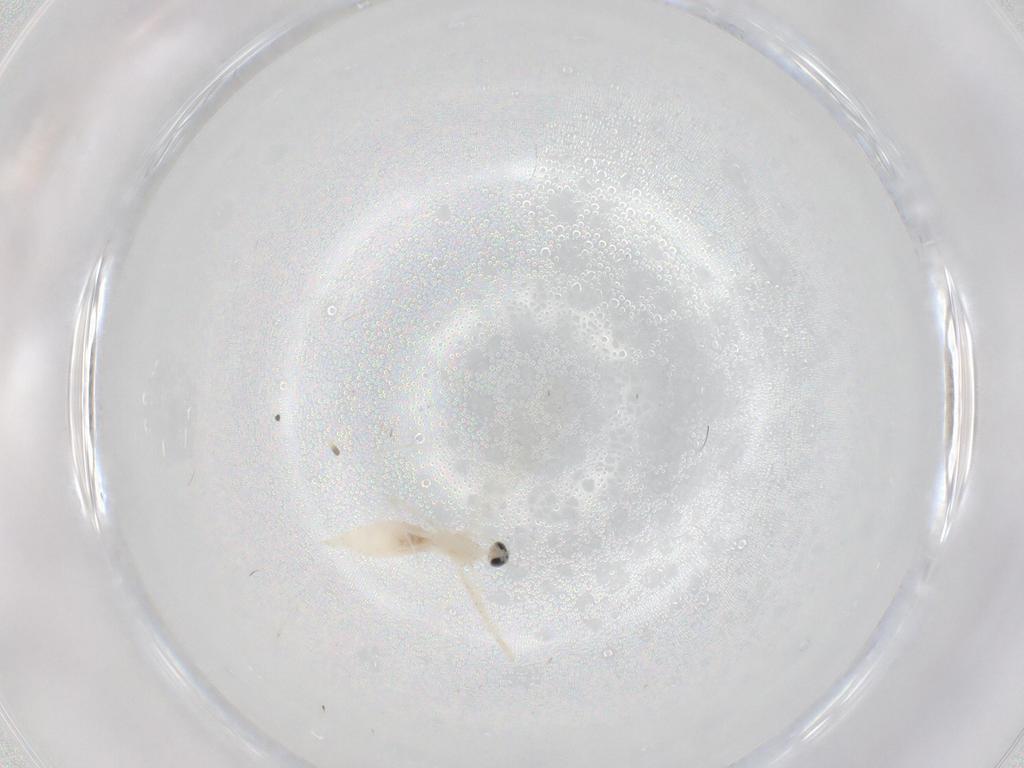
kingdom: Animalia
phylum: Arthropoda
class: Insecta
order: Diptera
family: Cecidomyiidae
